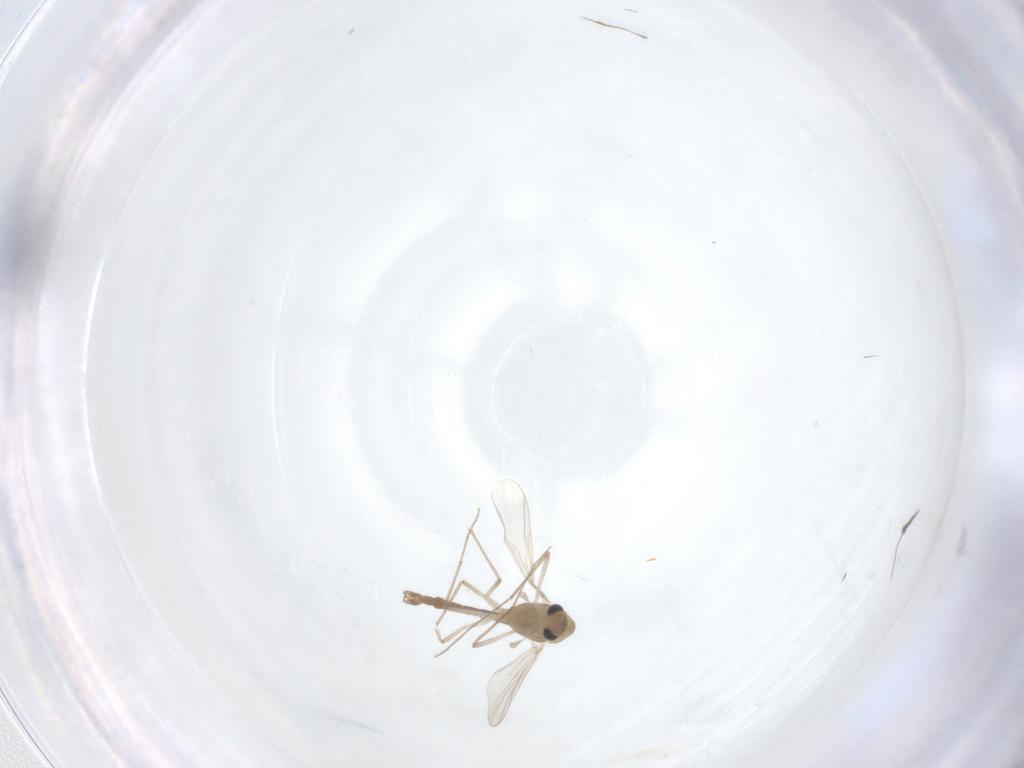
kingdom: Animalia
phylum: Arthropoda
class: Insecta
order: Diptera
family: Chironomidae
